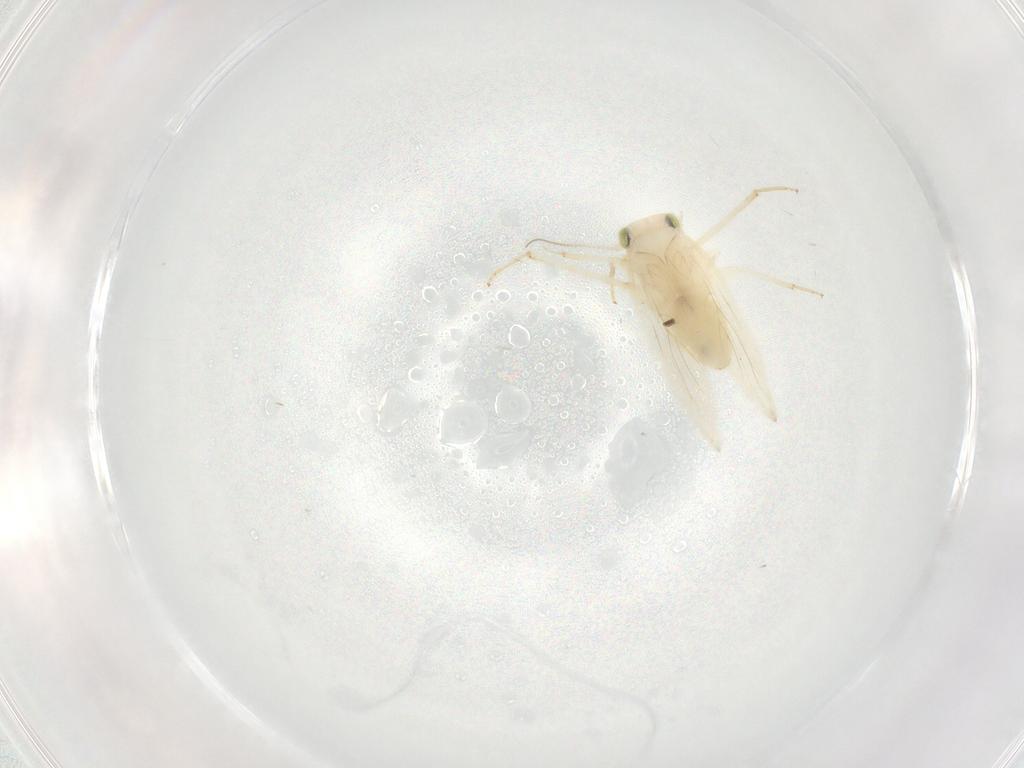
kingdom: Animalia
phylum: Arthropoda
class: Insecta
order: Psocodea
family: Lepidopsocidae
